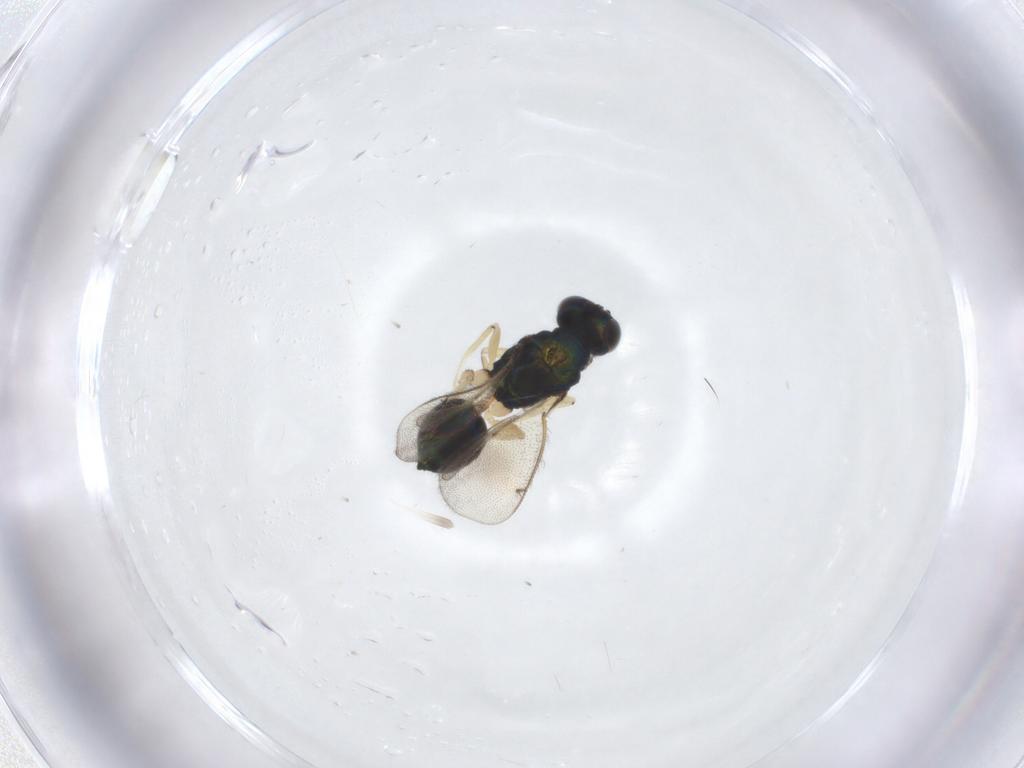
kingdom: Animalia
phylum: Arthropoda
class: Insecta
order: Hymenoptera
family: Eulophidae
